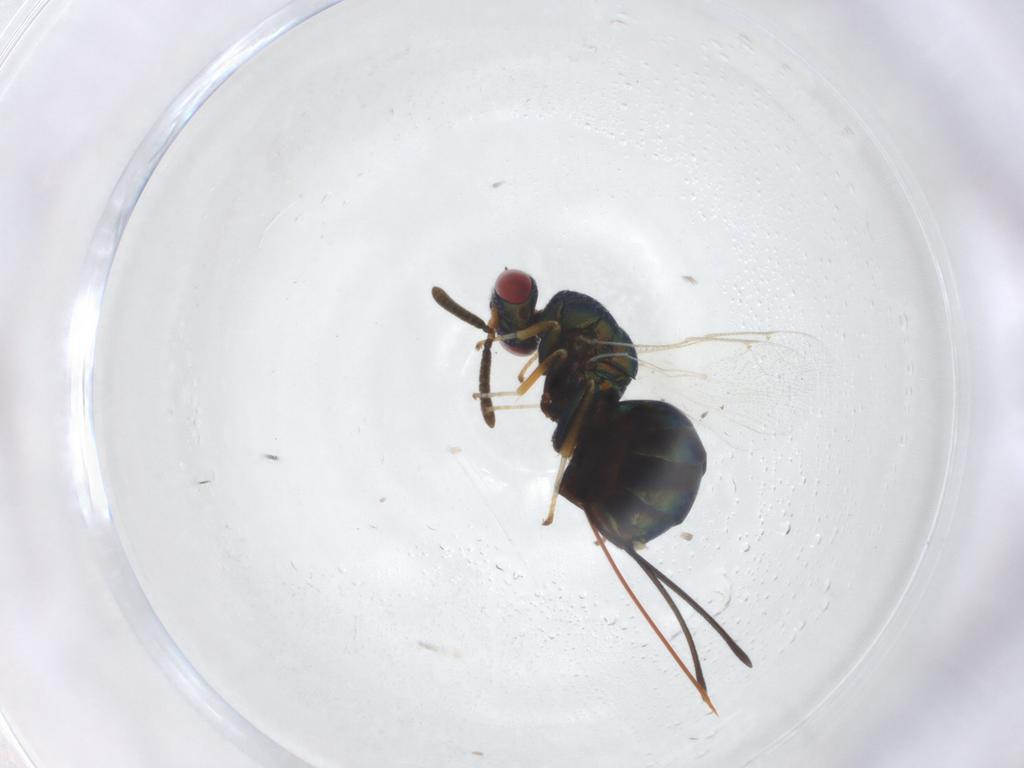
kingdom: Animalia
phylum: Arthropoda
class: Insecta
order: Hymenoptera
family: Torymidae
